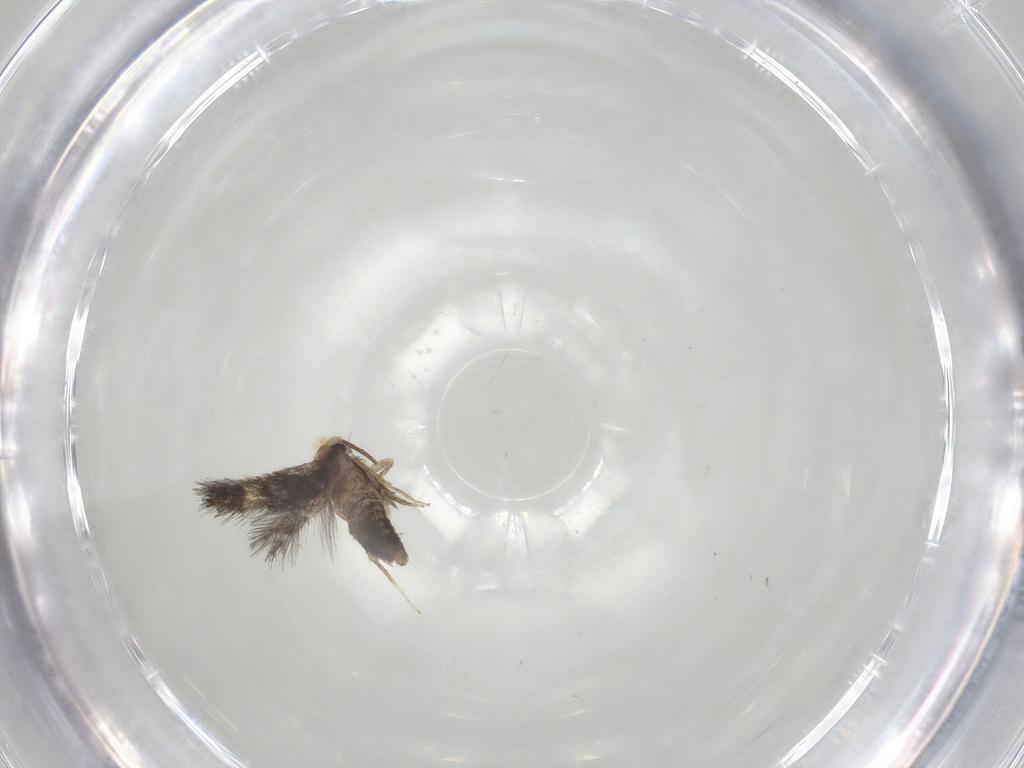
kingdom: Animalia
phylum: Arthropoda
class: Insecta
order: Lepidoptera
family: Nepticulidae
